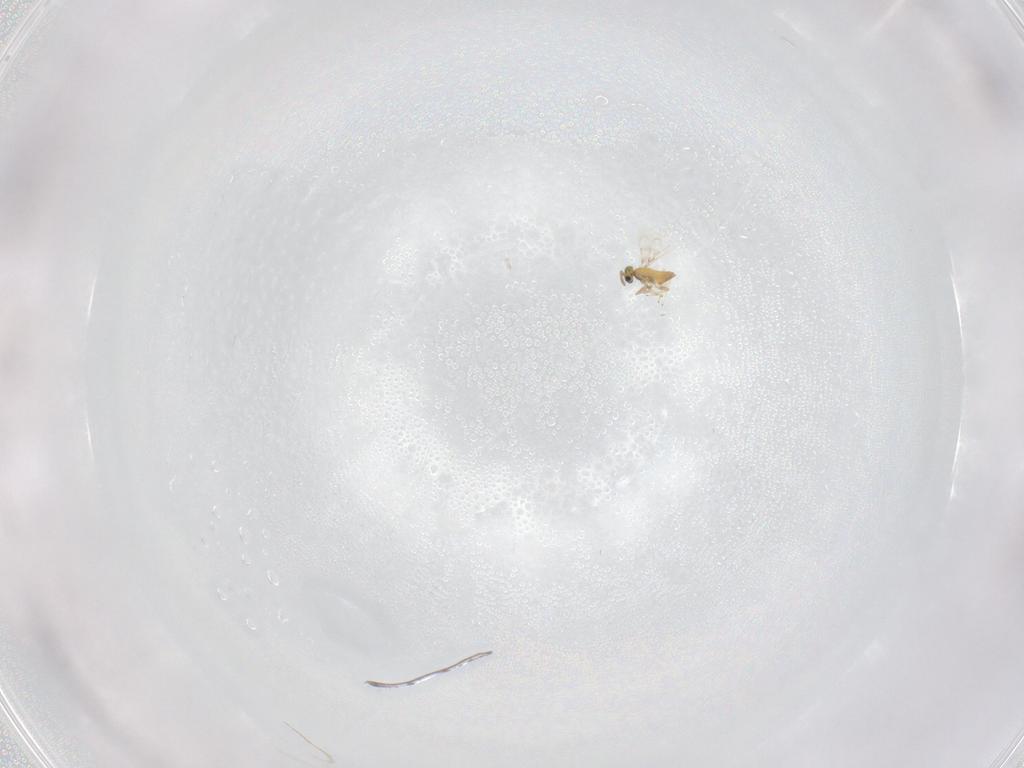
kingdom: Animalia
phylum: Arthropoda
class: Insecta
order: Hymenoptera
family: Trichogrammatidae
